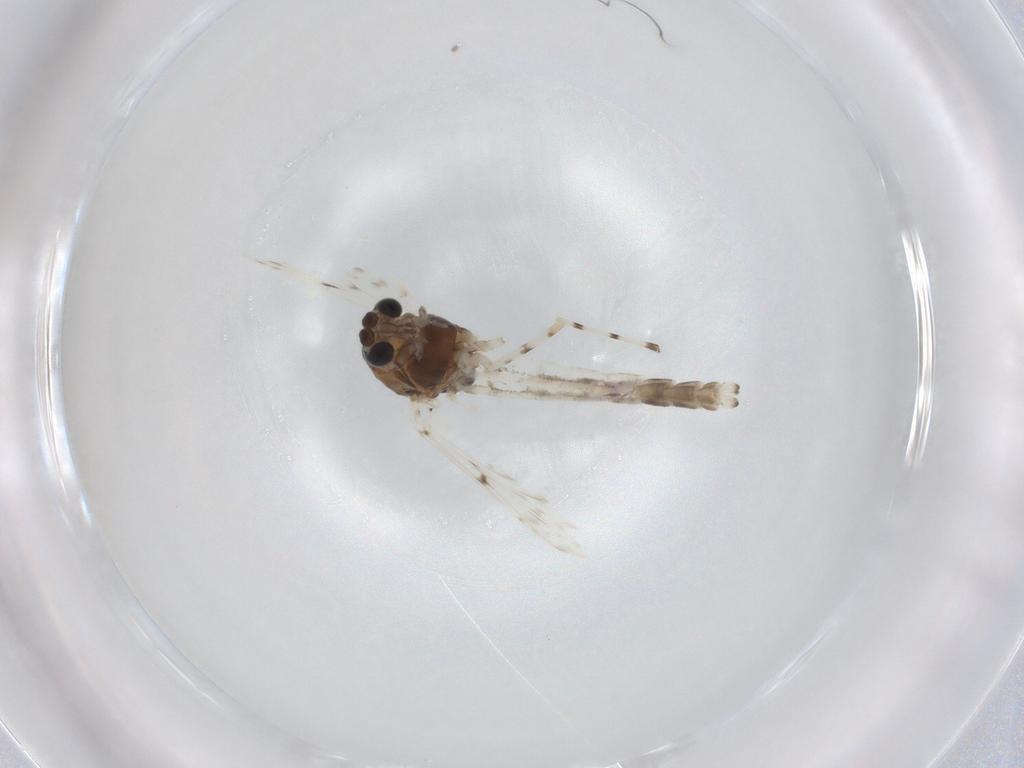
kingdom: Animalia
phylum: Arthropoda
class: Insecta
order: Diptera
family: Chironomidae
